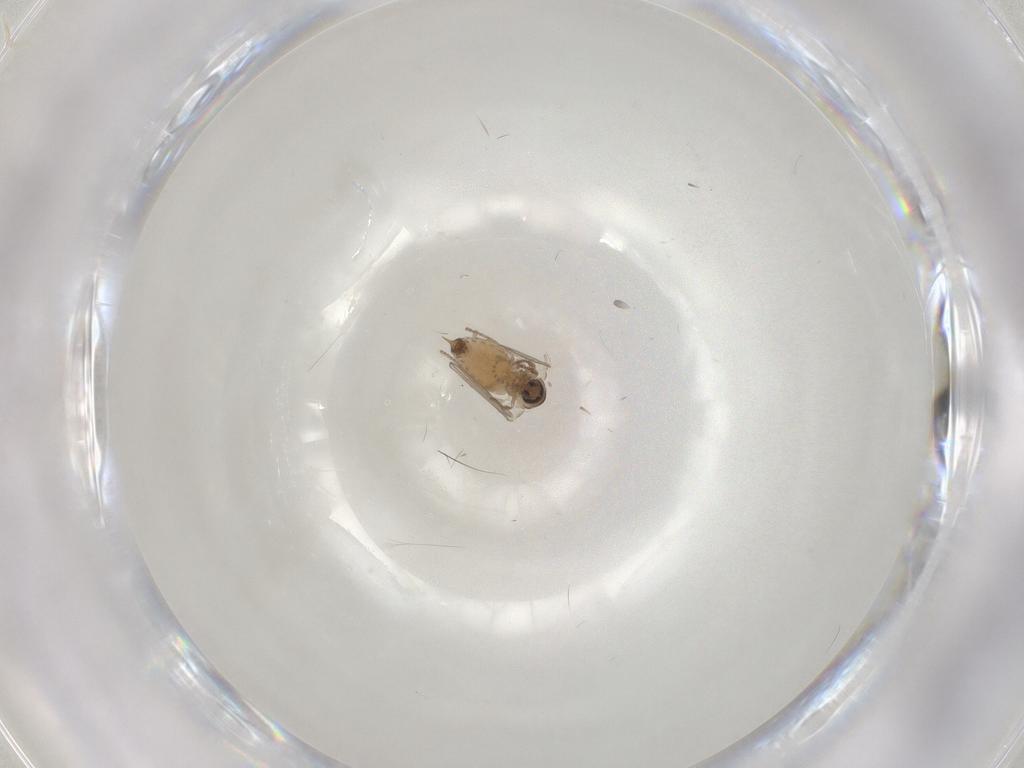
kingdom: Animalia
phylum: Arthropoda
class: Insecta
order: Diptera
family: Psychodidae
